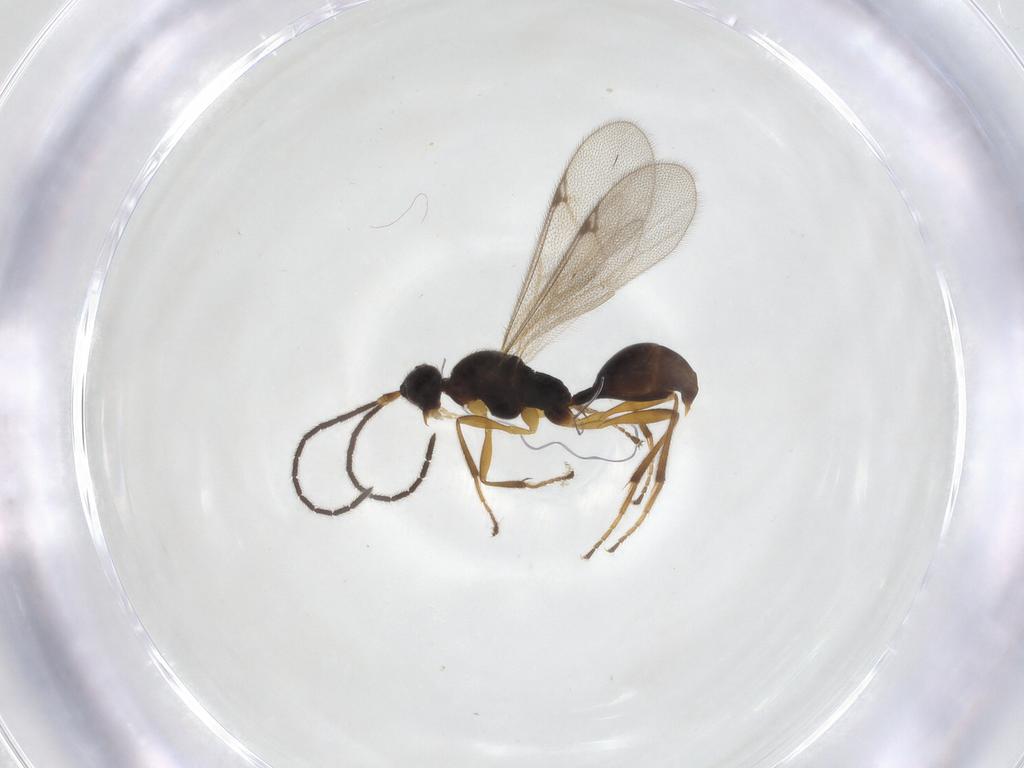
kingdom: Animalia
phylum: Arthropoda
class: Insecta
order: Hymenoptera
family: Proctotrupidae
